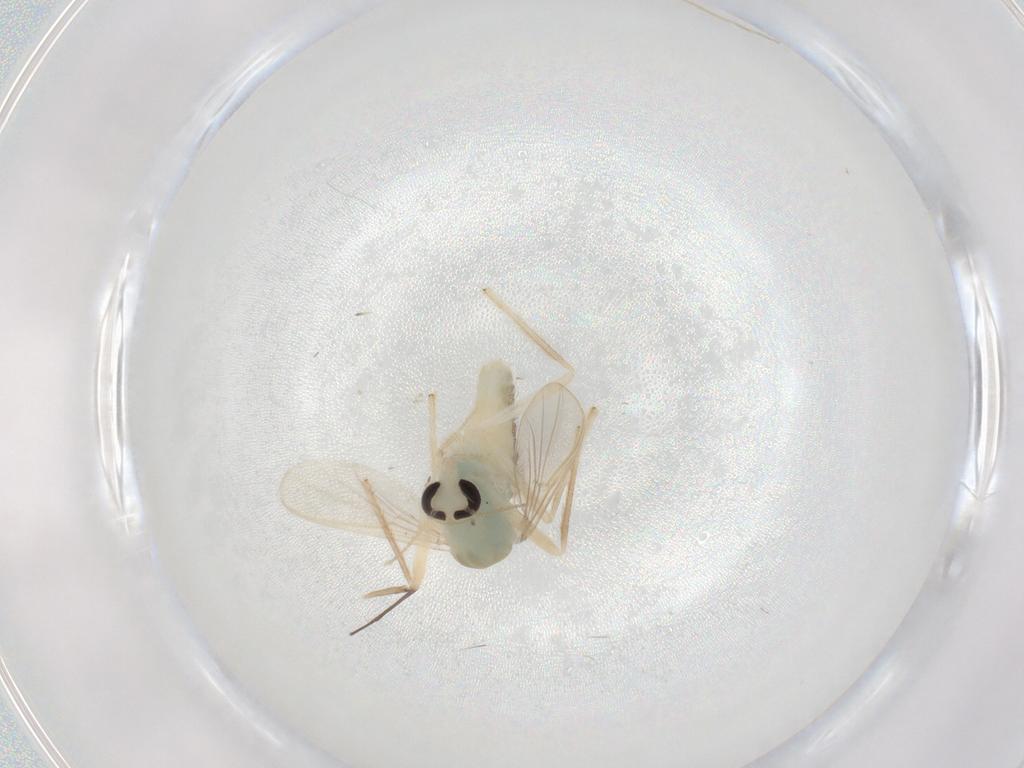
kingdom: Animalia
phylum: Arthropoda
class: Insecta
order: Diptera
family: Chironomidae
